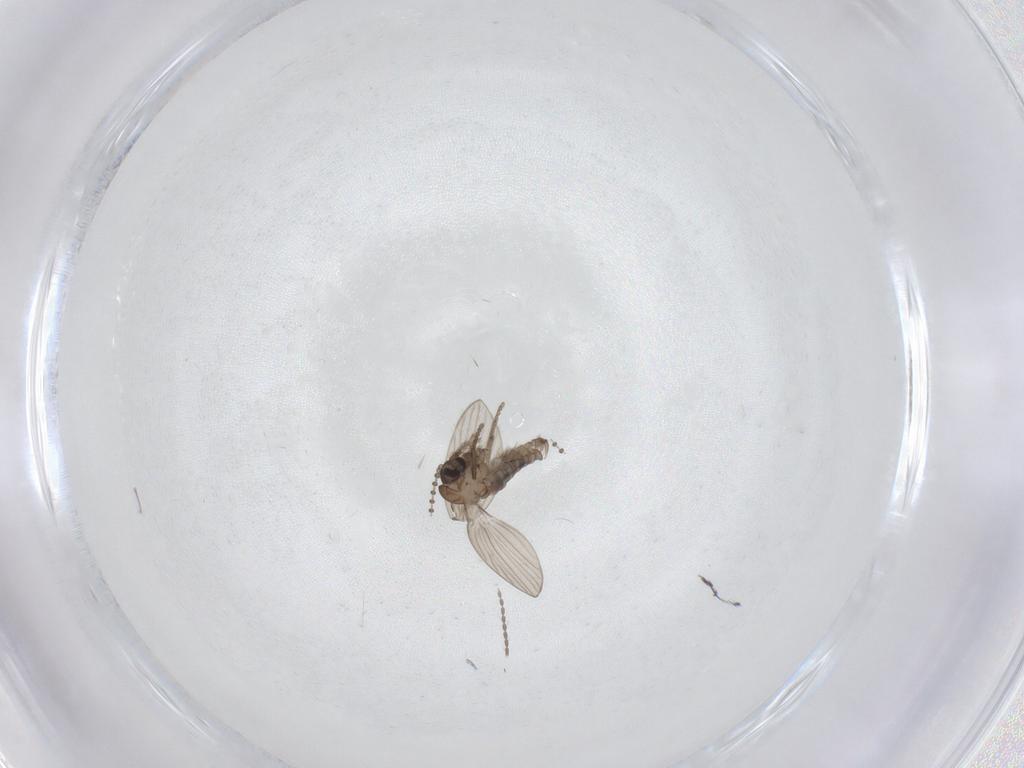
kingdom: Animalia
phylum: Arthropoda
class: Insecta
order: Diptera
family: Psychodidae
